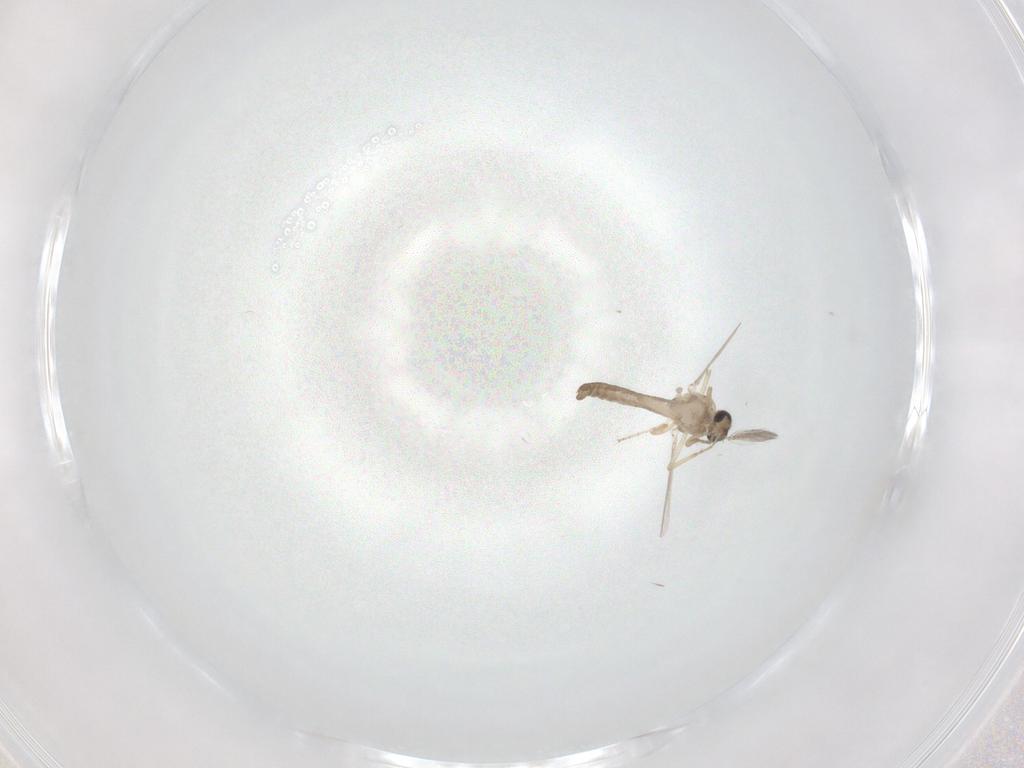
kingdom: Animalia
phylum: Arthropoda
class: Insecta
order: Diptera
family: Ceratopogonidae
